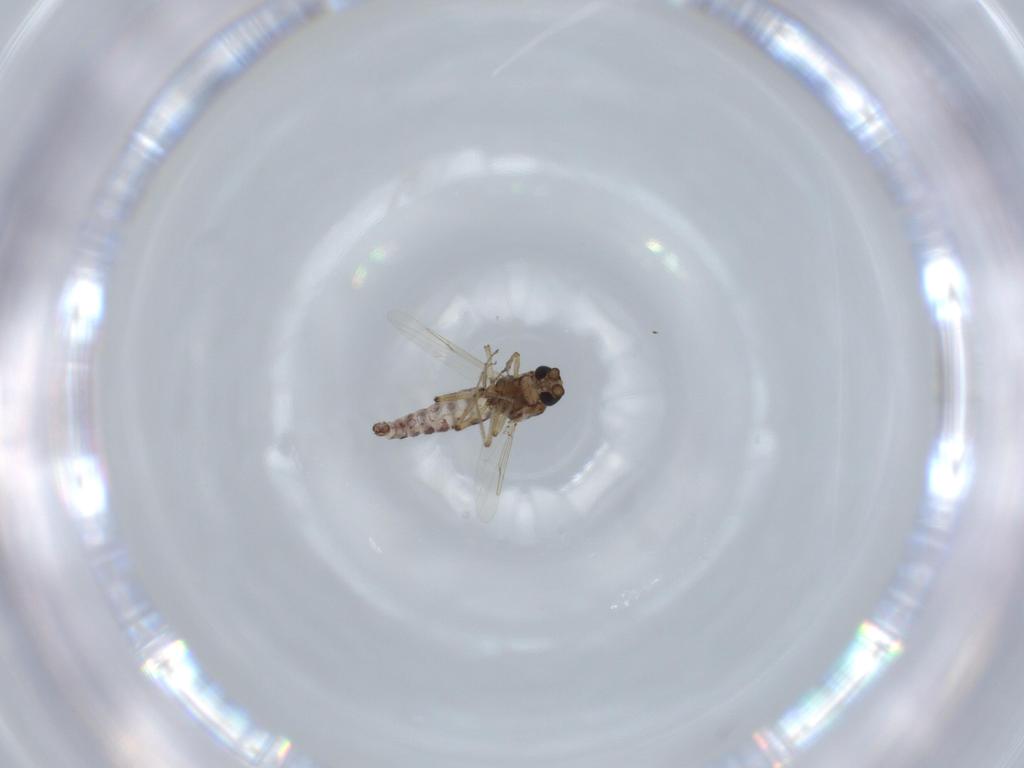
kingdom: Animalia
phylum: Arthropoda
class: Insecta
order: Diptera
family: Ceratopogonidae
